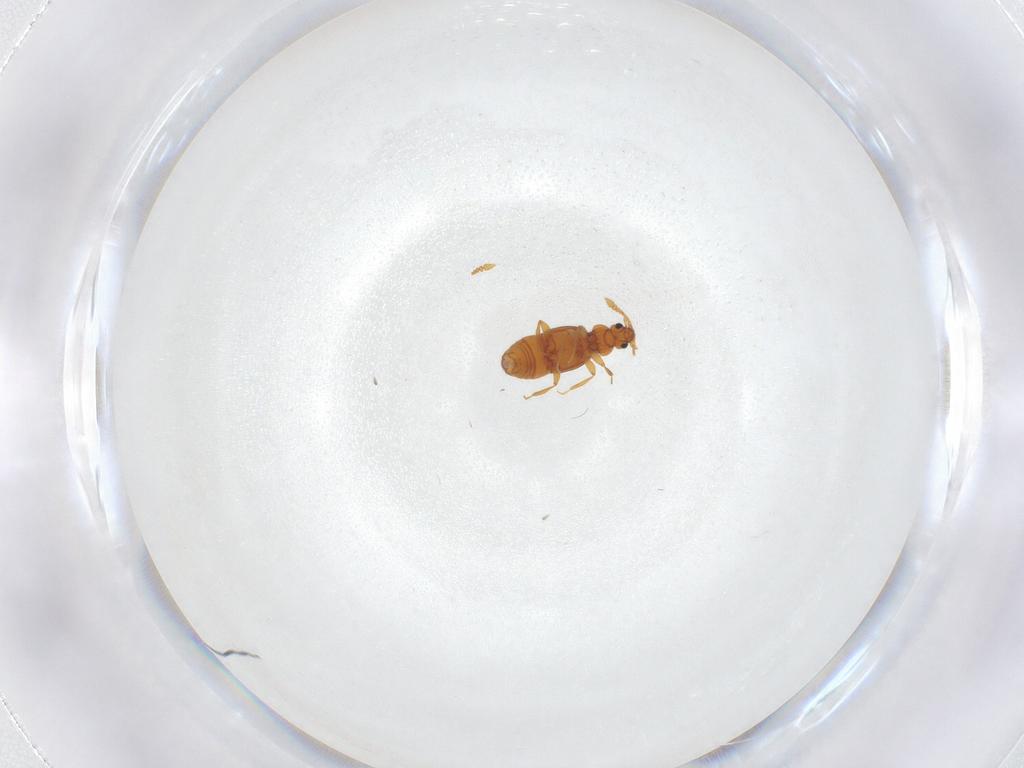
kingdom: Animalia
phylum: Arthropoda
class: Insecta
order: Coleoptera
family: Staphylinidae
